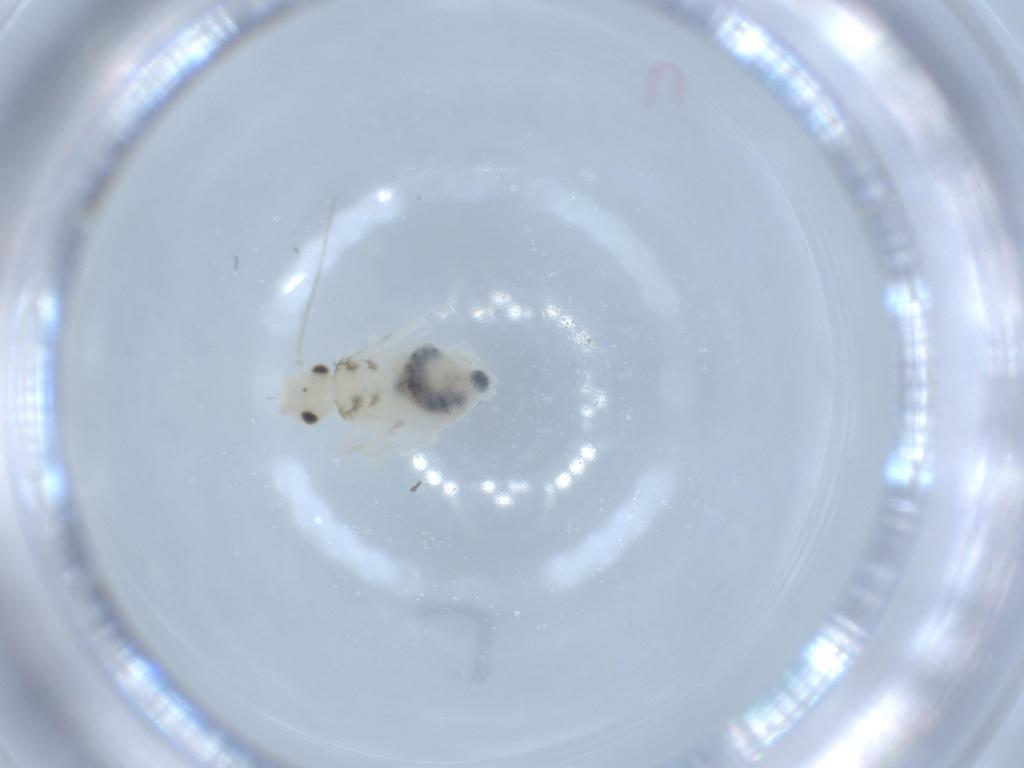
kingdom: Animalia
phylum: Arthropoda
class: Insecta
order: Psocodea
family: Caeciliusidae
